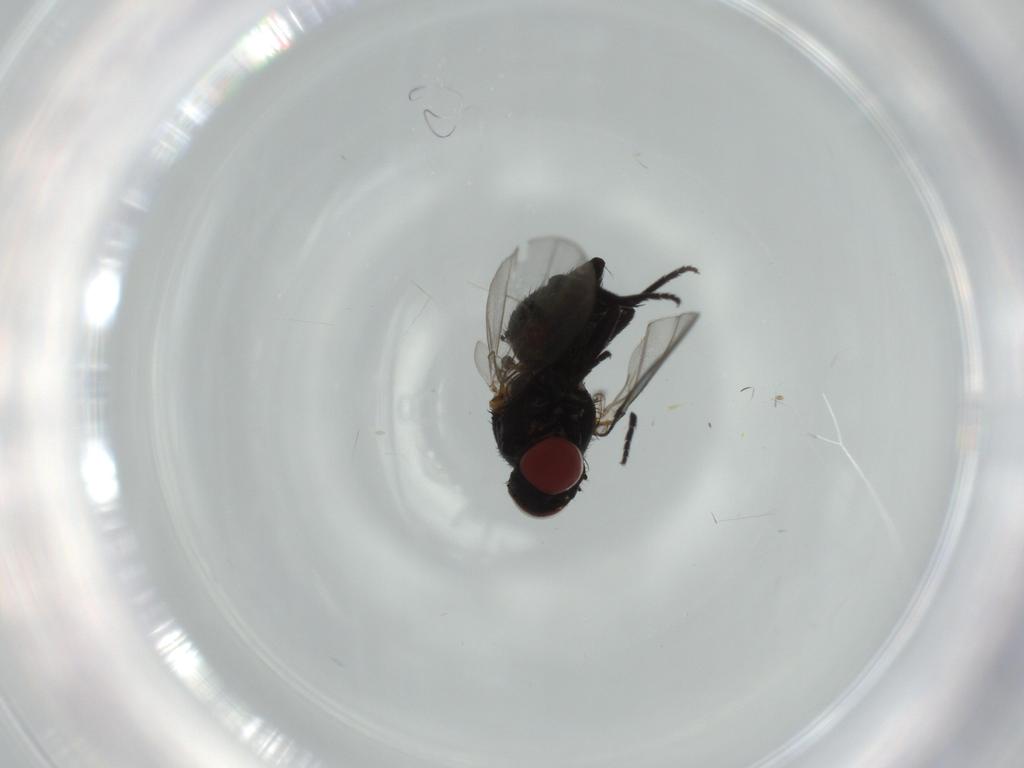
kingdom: Animalia
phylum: Arthropoda
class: Insecta
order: Diptera
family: Agromyzidae
